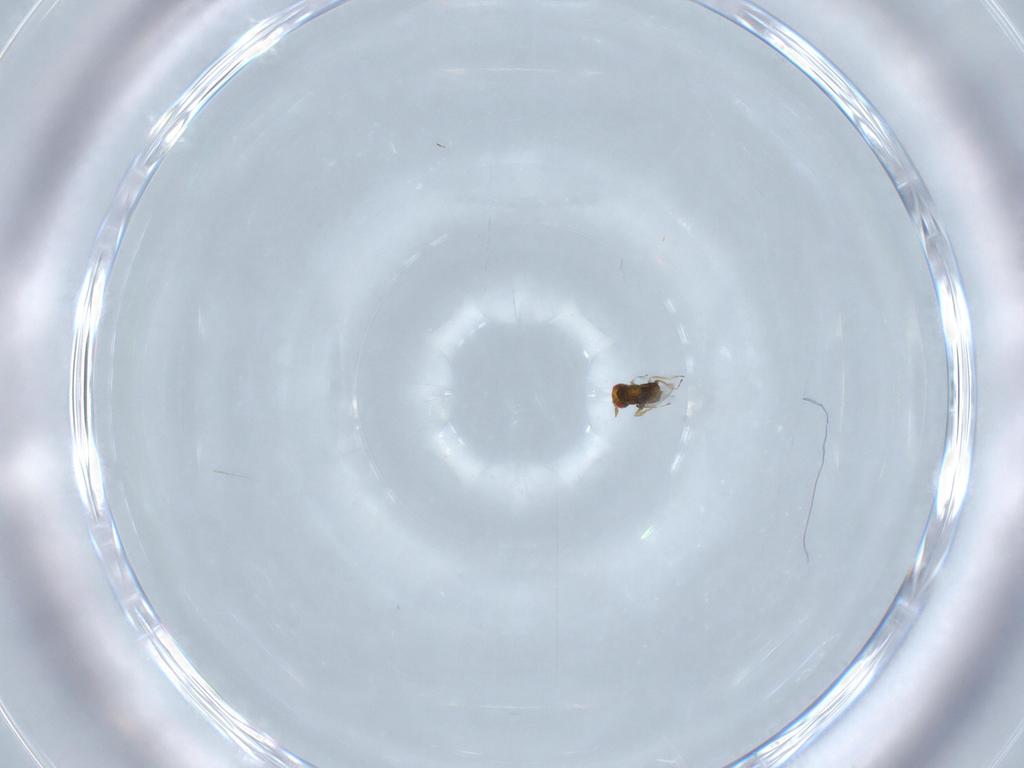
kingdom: Animalia
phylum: Arthropoda
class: Insecta
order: Hymenoptera
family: Trichogrammatidae
